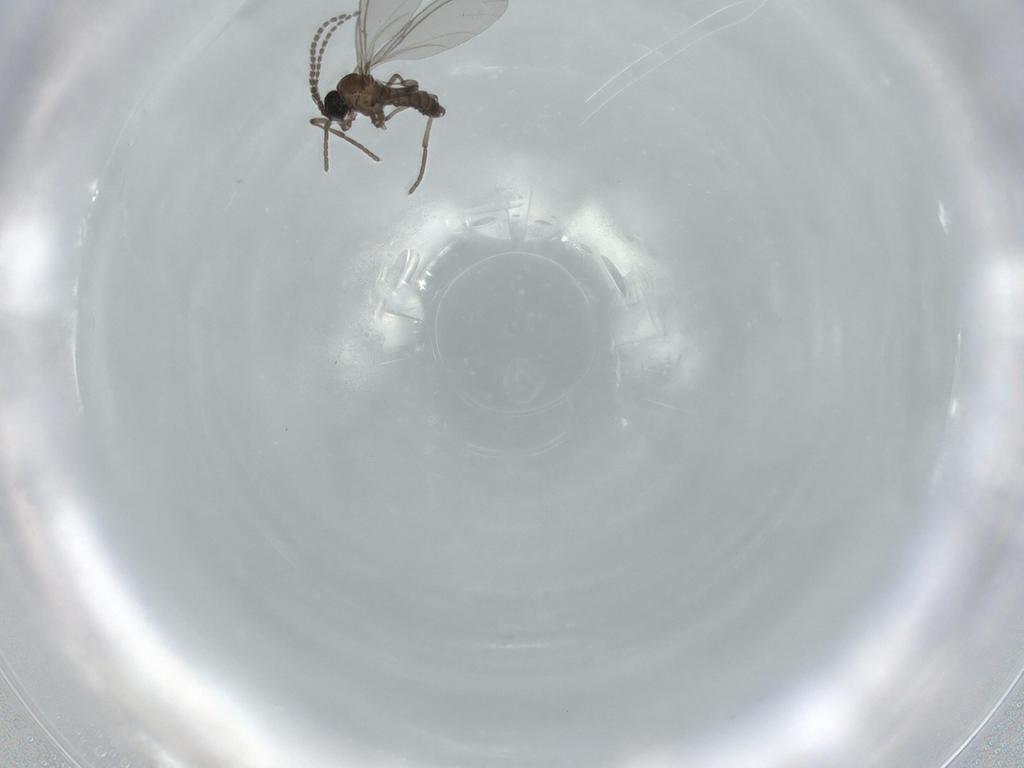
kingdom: Animalia
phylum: Arthropoda
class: Insecta
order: Diptera
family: Sciaridae
